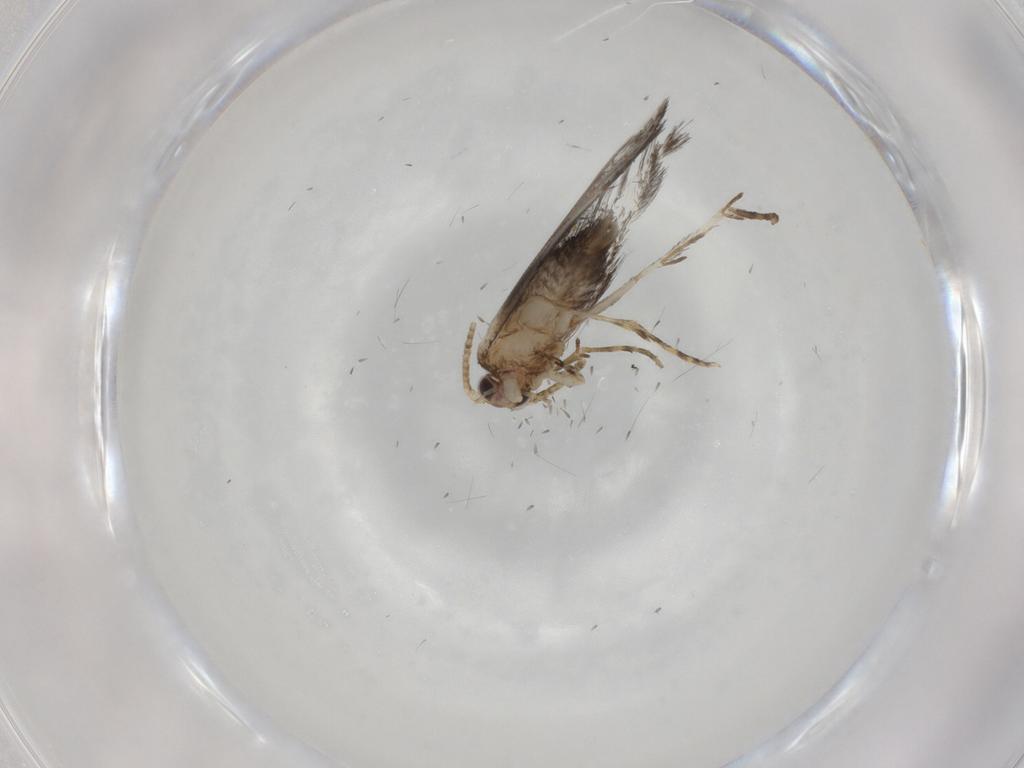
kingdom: Animalia
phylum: Arthropoda
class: Insecta
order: Lepidoptera
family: Tineidae
